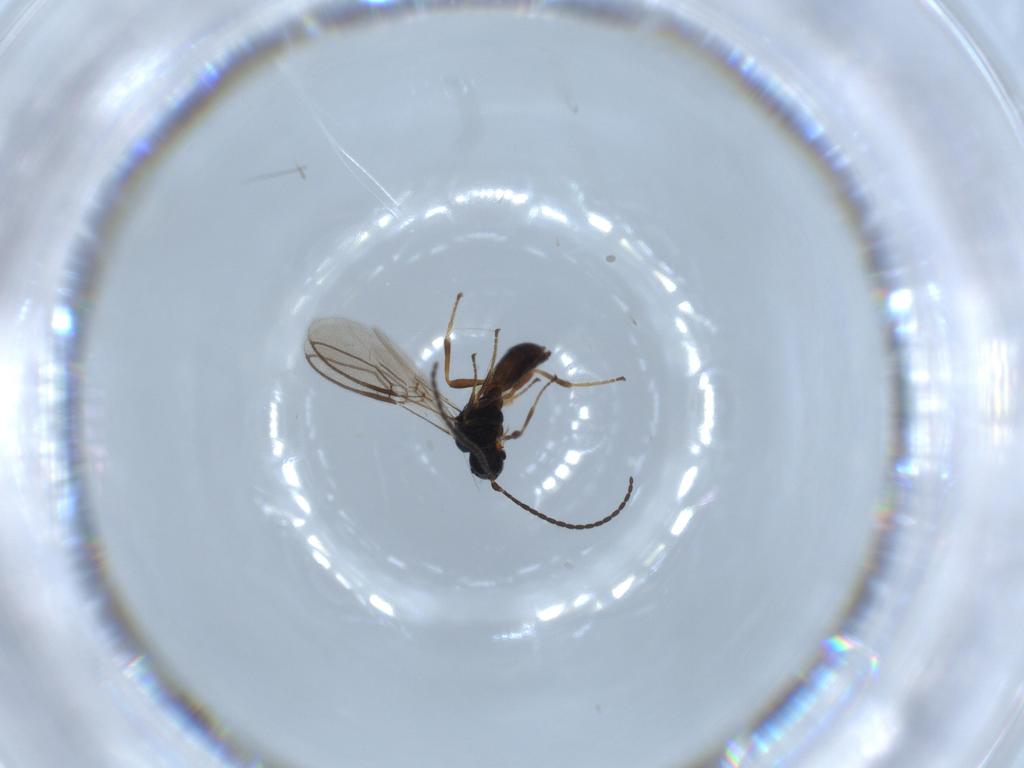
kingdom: Animalia
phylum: Arthropoda
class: Insecta
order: Hymenoptera
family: Braconidae
